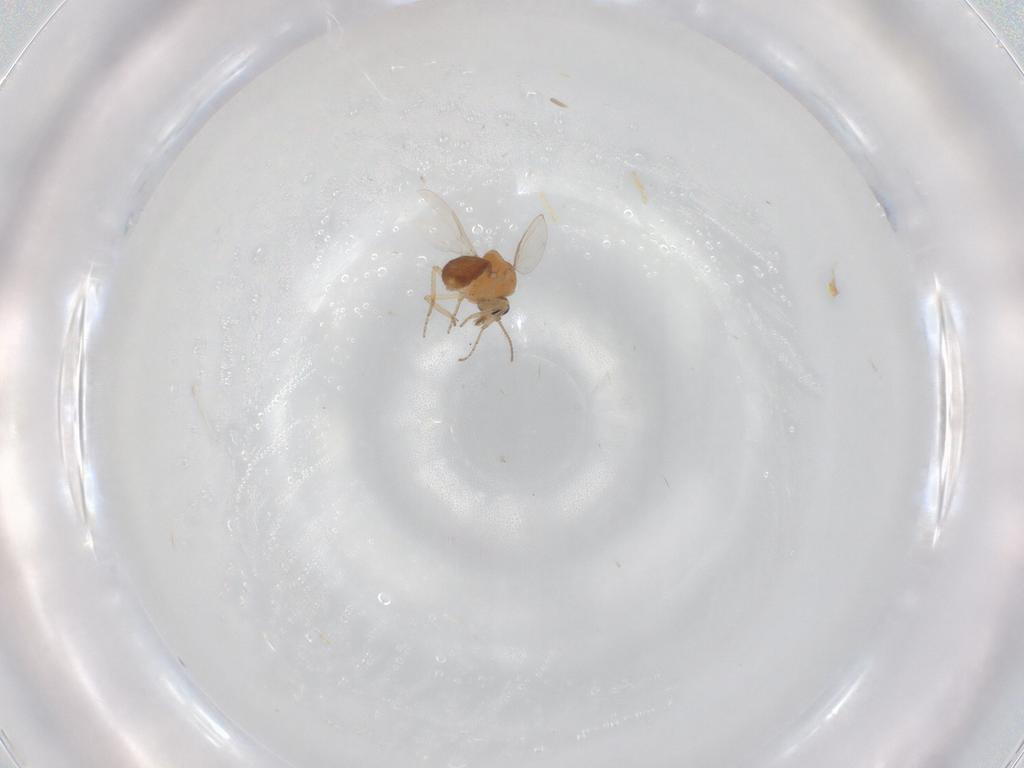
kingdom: Animalia
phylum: Arthropoda
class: Insecta
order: Diptera
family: Ceratopogonidae
